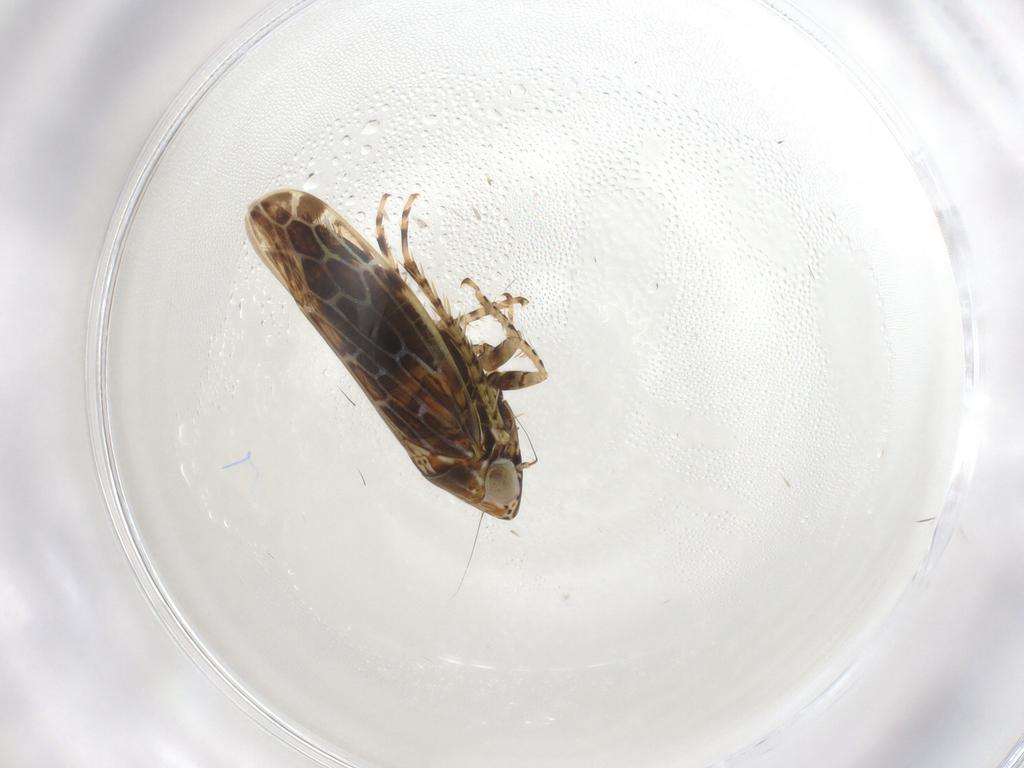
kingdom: Animalia
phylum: Arthropoda
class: Insecta
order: Hemiptera
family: Cicadellidae
